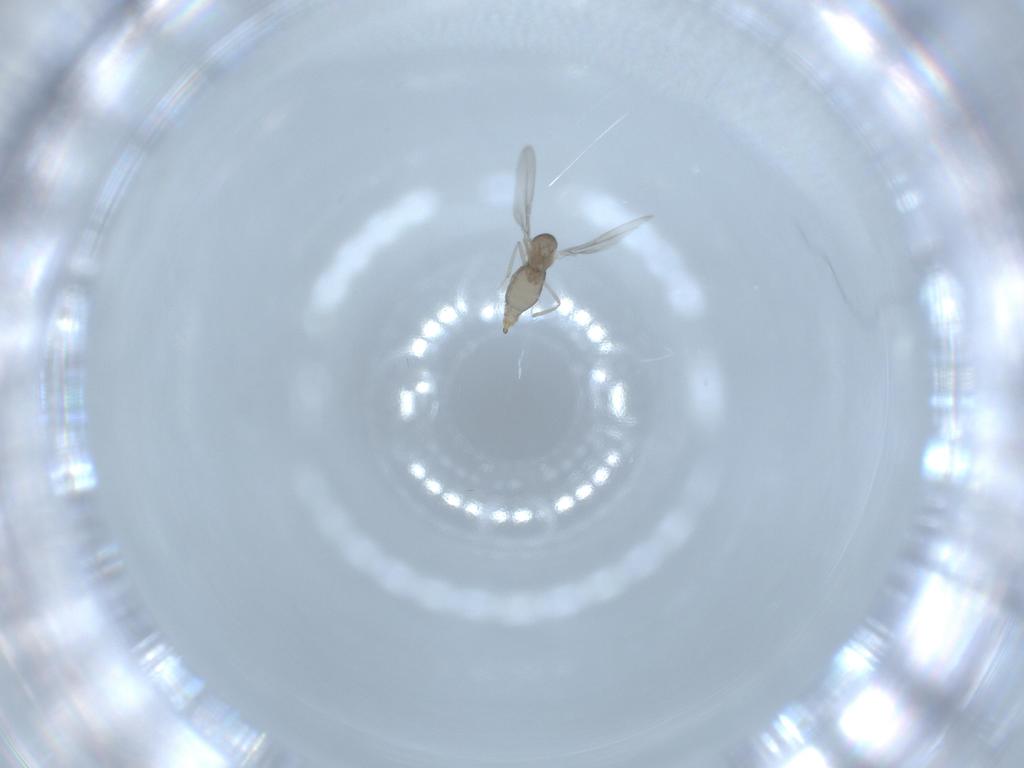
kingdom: Animalia
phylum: Arthropoda
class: Insecta
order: Diptera
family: Cecidomyiidae
